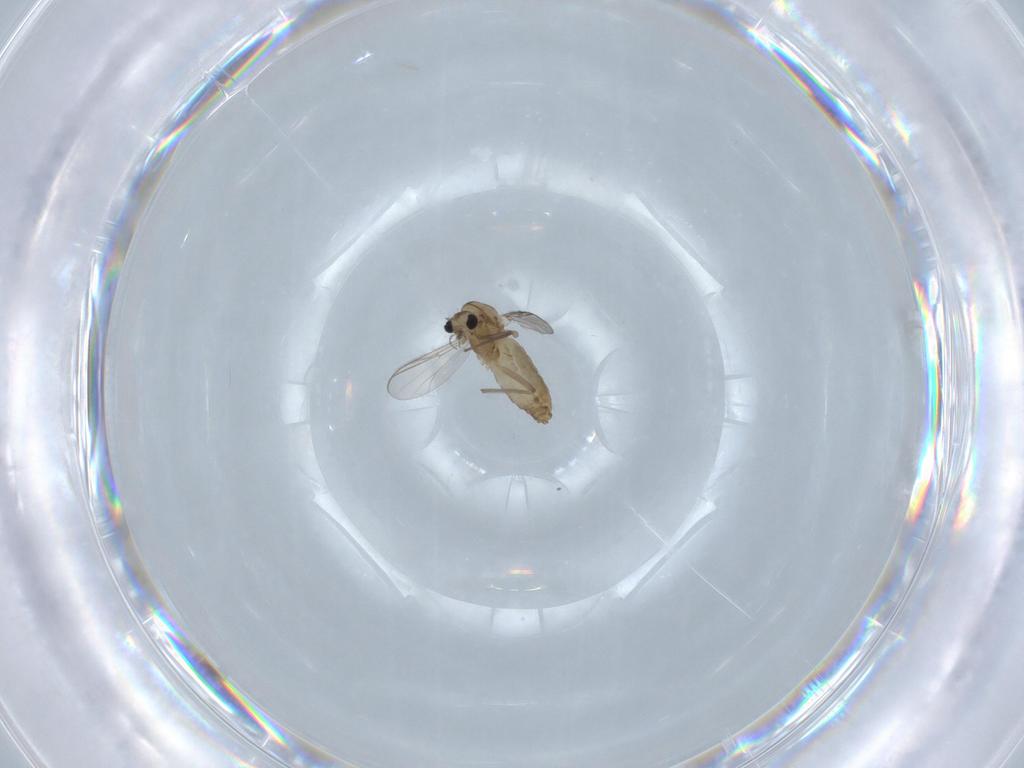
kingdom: Animalia
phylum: Arthropoda
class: Insecta
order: Diptera
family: Chironomidae
